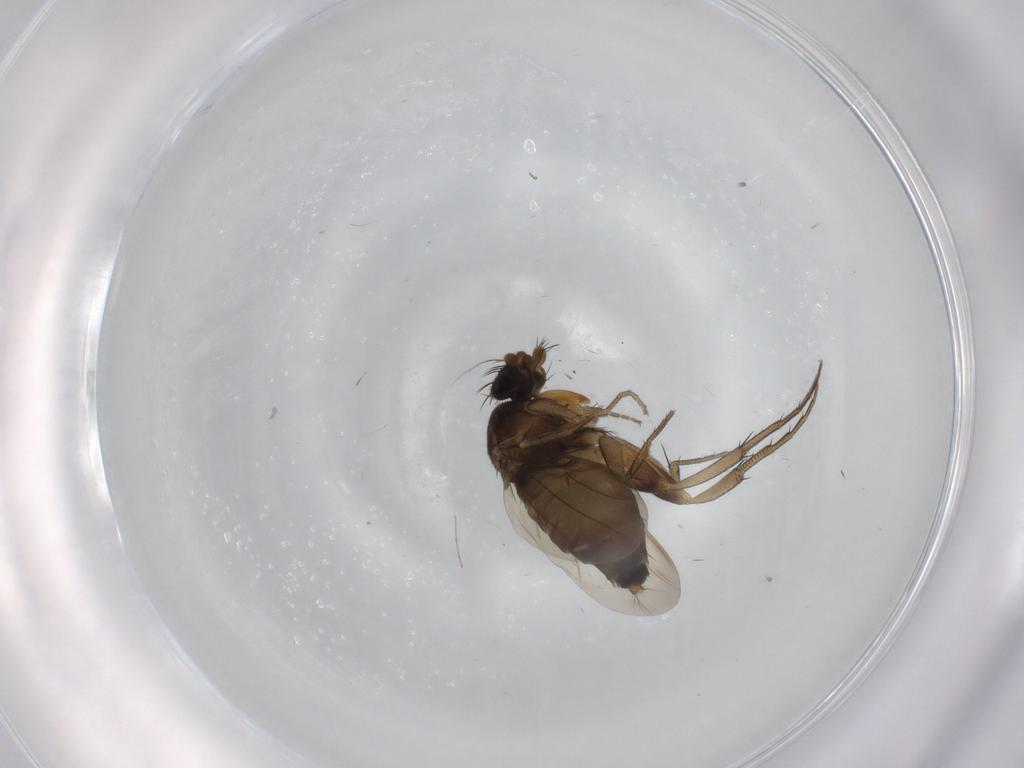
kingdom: Animalia
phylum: Arthropoda
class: Insecta
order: Diptera
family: Cecidomyiidae
